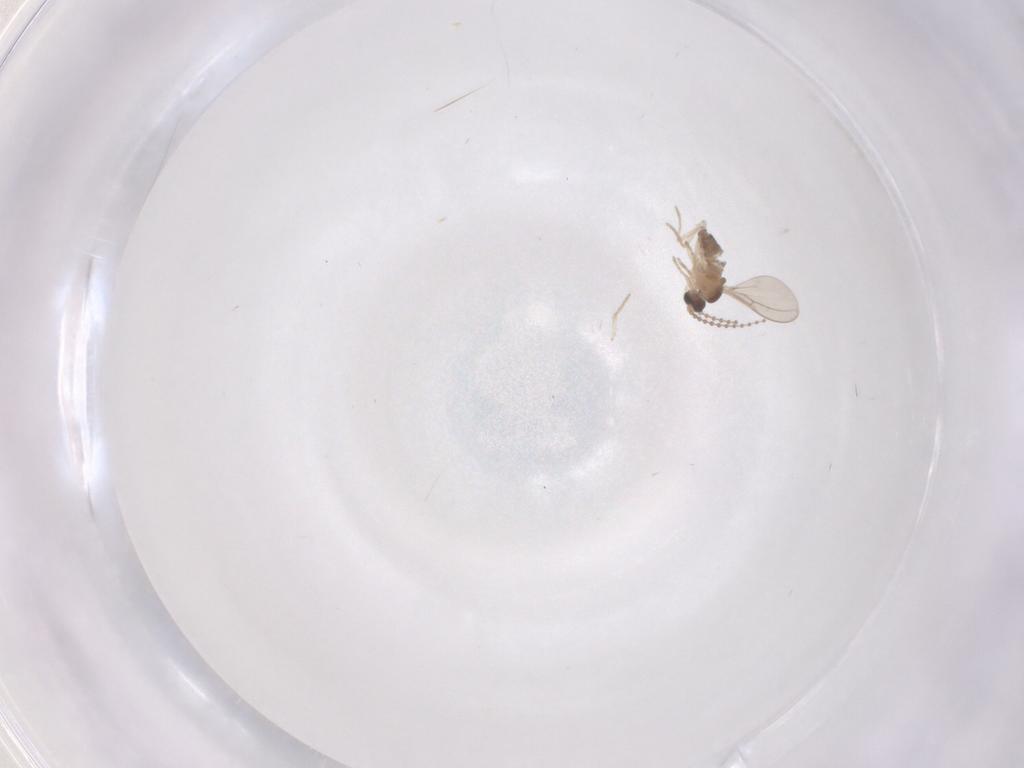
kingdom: Animalia
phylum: Arthropoda
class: Insecta
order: Diptera
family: Cecidomyiidae
